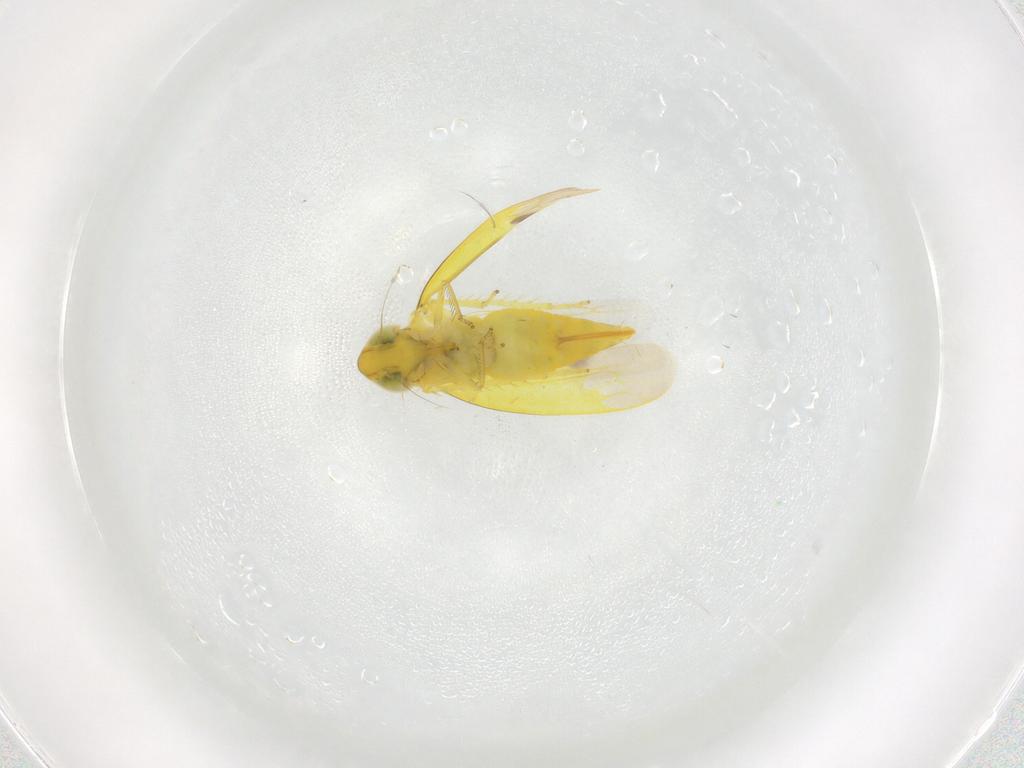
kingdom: Animalia
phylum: Arthropoda
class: Insecta
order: Hemiptera
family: Cicadellidae
